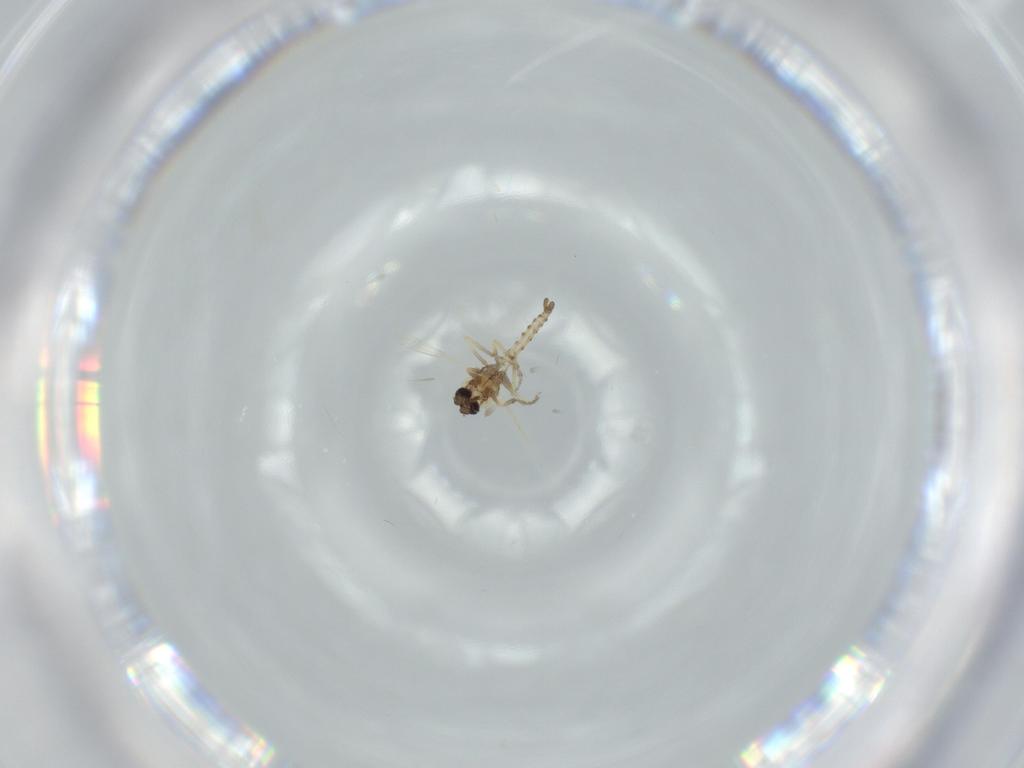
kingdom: Animalia
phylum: Arthropoda
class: Insecta
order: Diptera
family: Ceratopogonidae
